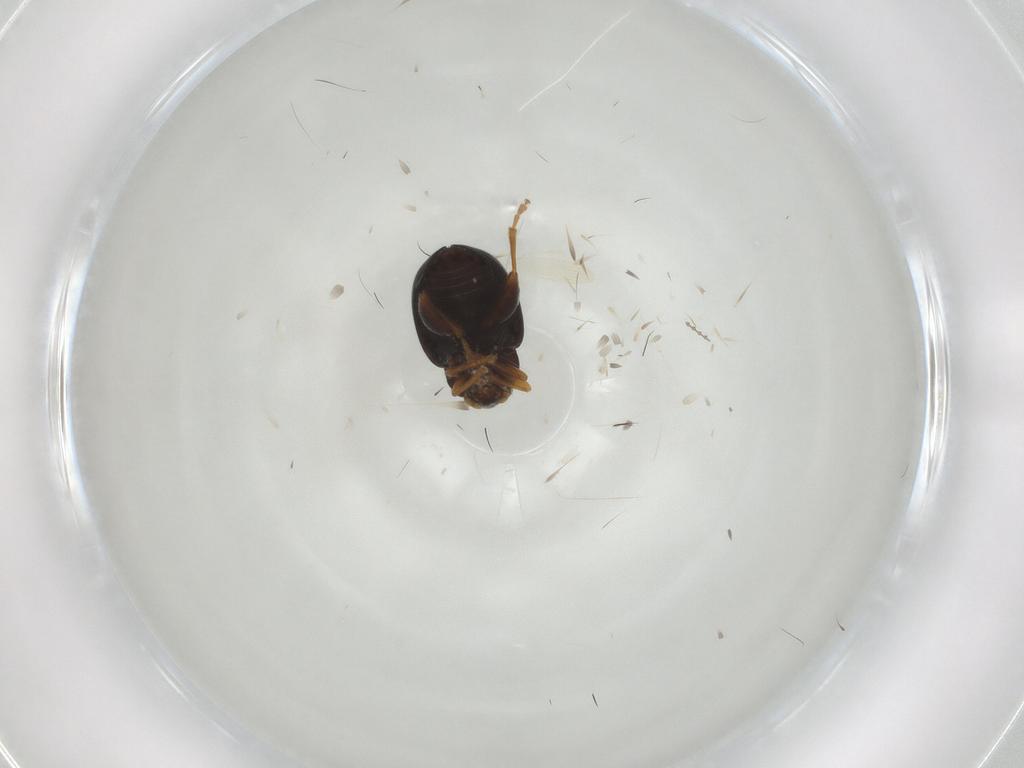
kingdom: Animalia
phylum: Arthropoda
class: Insecta
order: Coleoptera
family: Chrysomelidae
